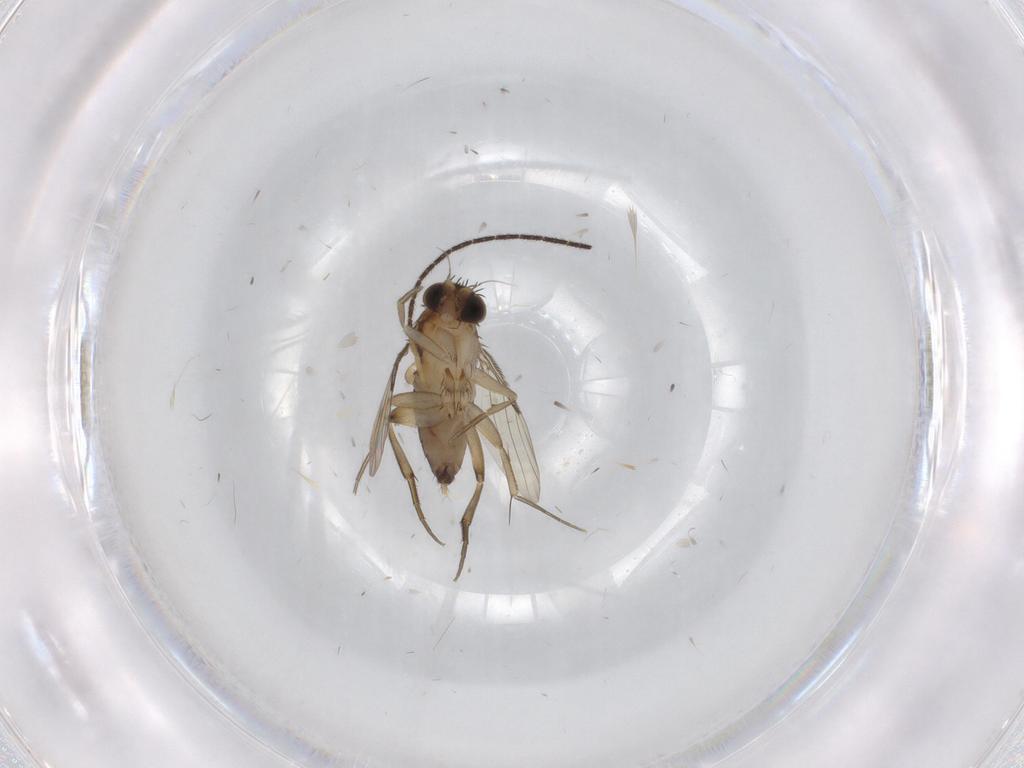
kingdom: Animalia
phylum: Arthropoda
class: Insecta
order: Diptera
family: Phoridae
